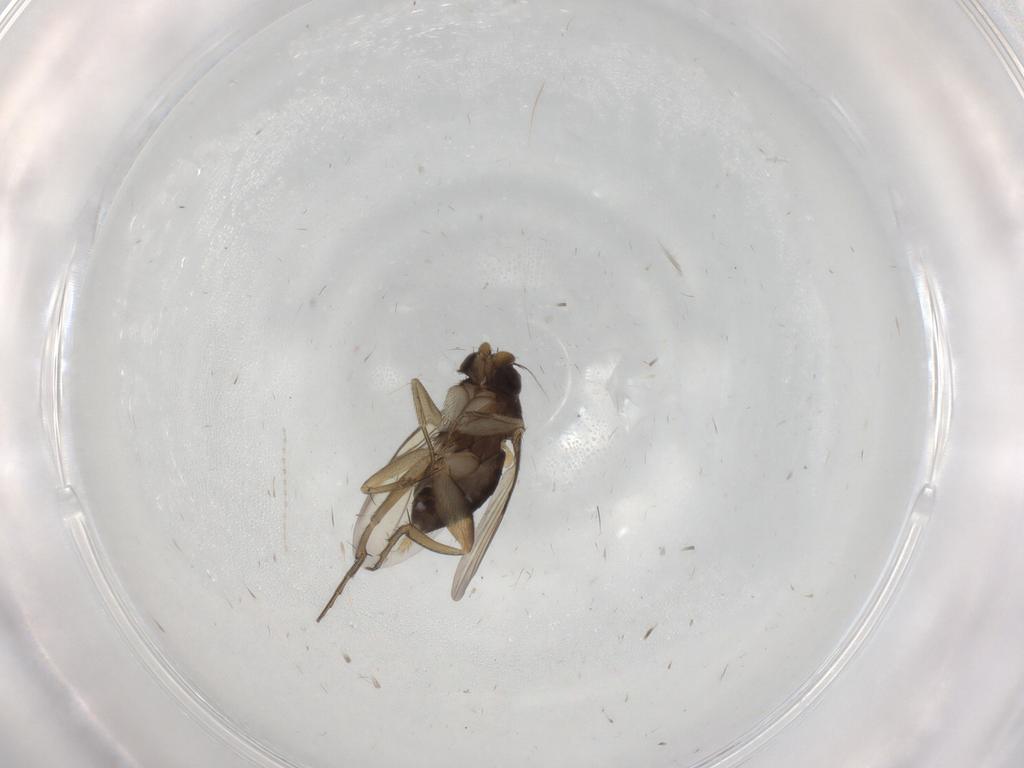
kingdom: Animalia
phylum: Arthropoda
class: Insecta
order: Diptera
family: Phoridae
